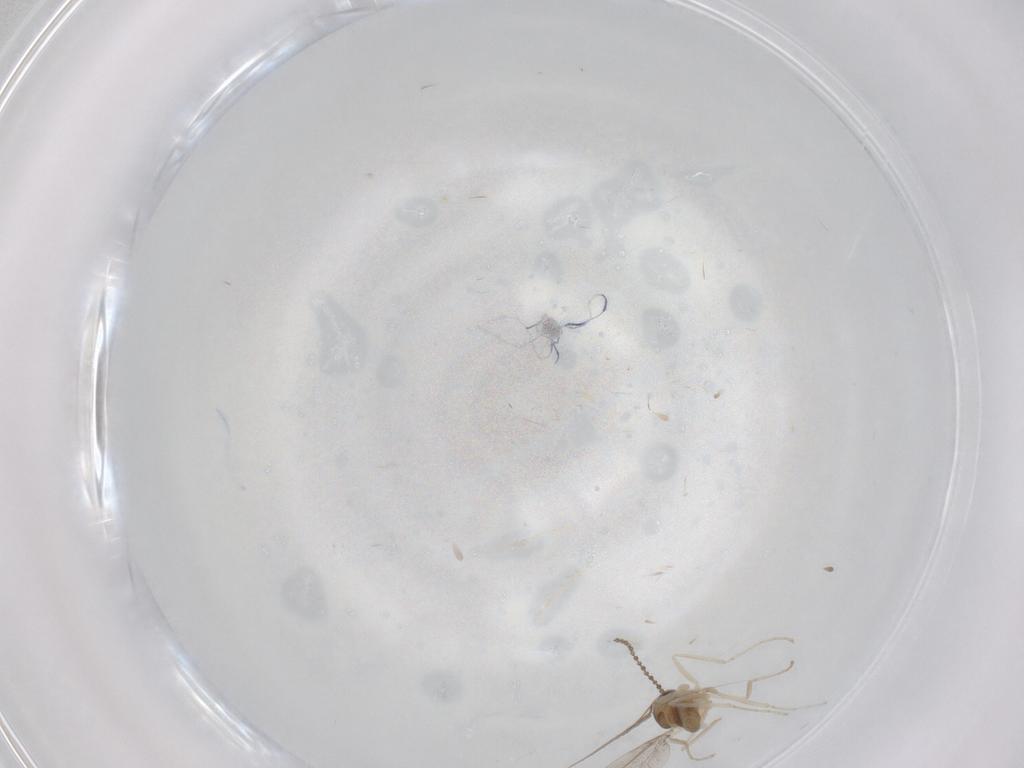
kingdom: Animalia
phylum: Arthropoda
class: Insecta
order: Diptera
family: Cecidomyiidae
